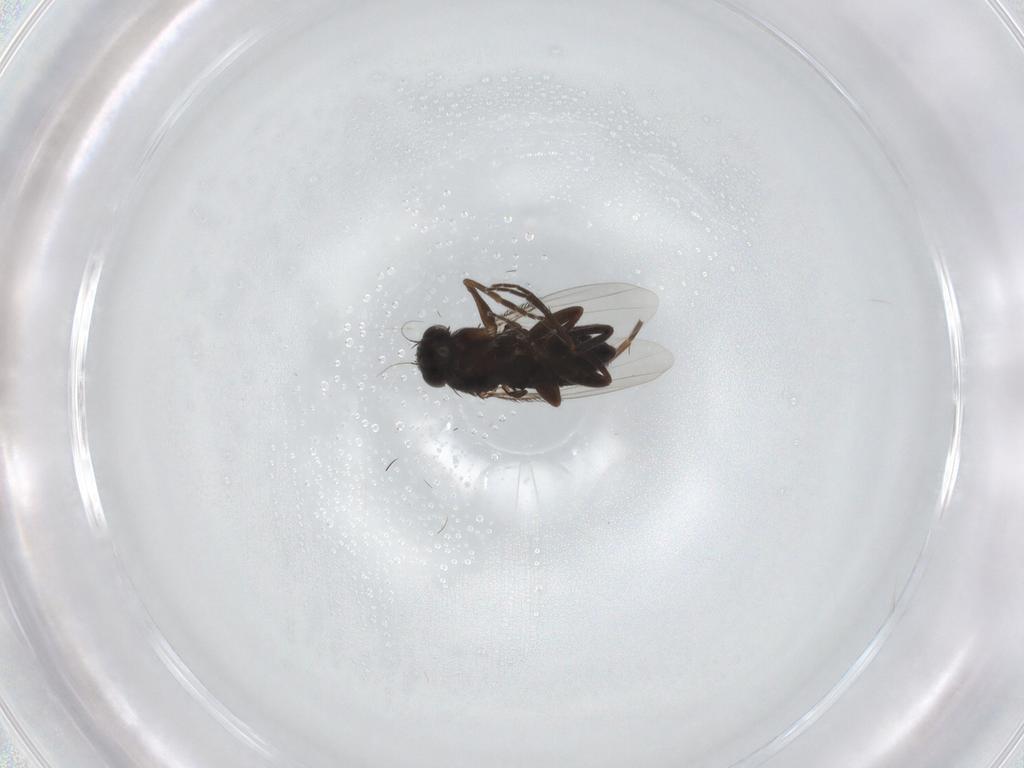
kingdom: Animalia
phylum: Arthropoda
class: Insecta
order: Diptera
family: Phoridae
